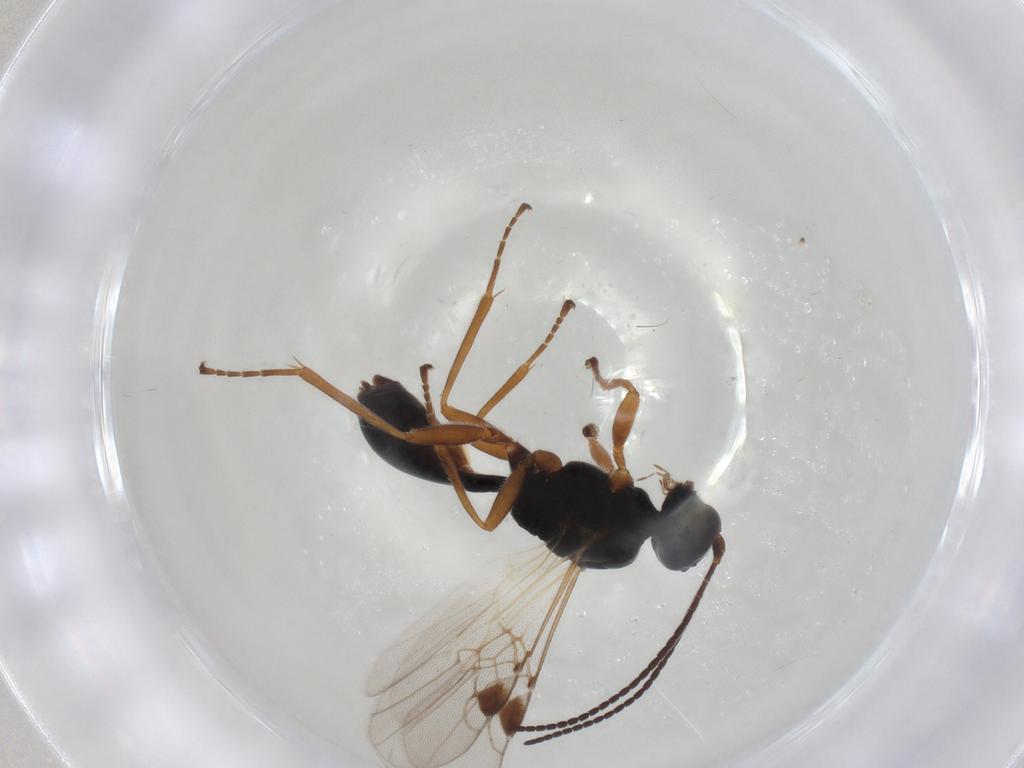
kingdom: Animalia
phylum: Arthropoda
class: Insecta
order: Hymenoptera
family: Braconidae
